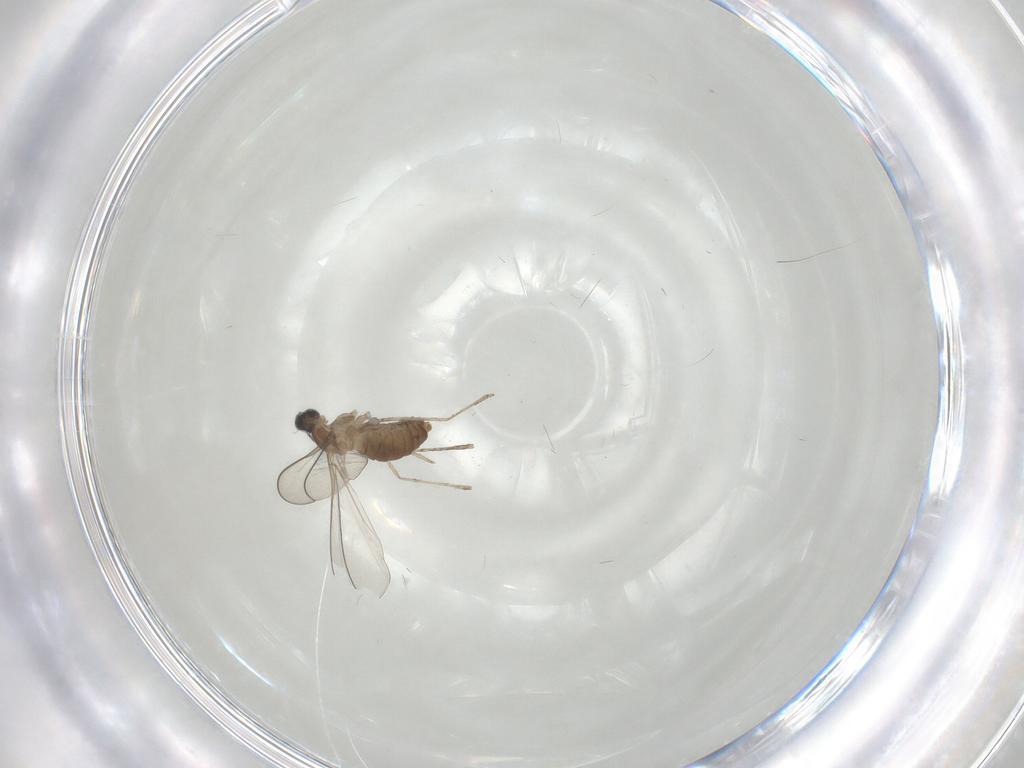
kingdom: Animalia
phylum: Arthropoda
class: Insecta
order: Diptera
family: Cecidomyiidae
